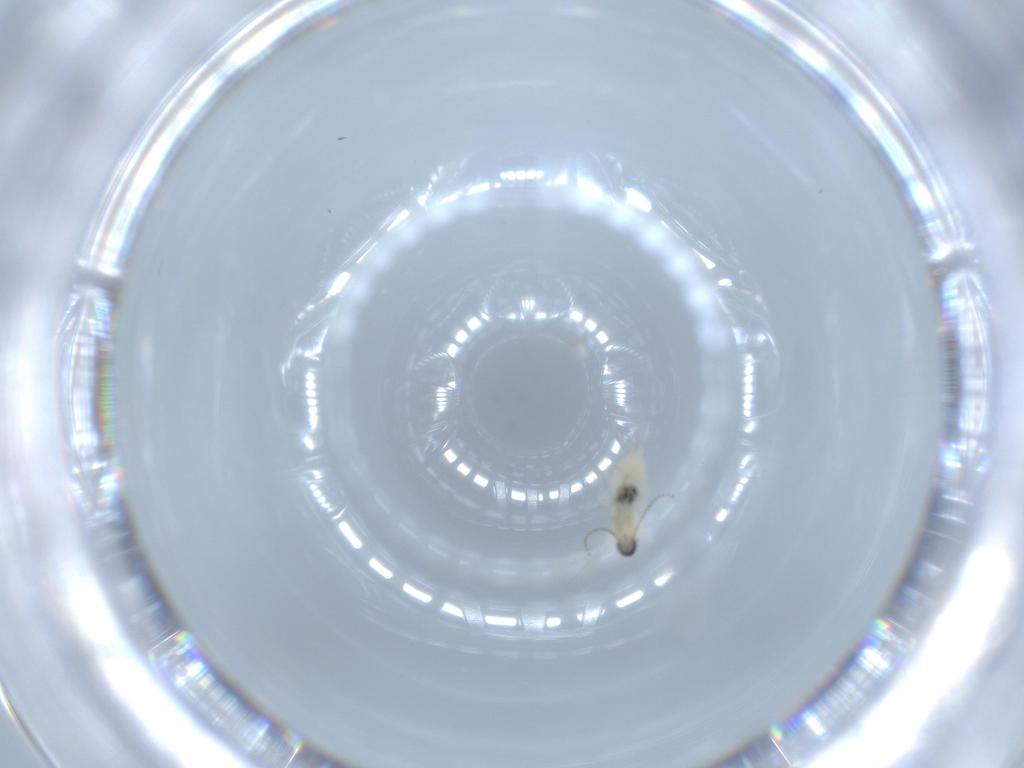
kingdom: Animalia
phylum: Arthropoda
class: Insecta
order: Diptera
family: Cecidomyiidae
